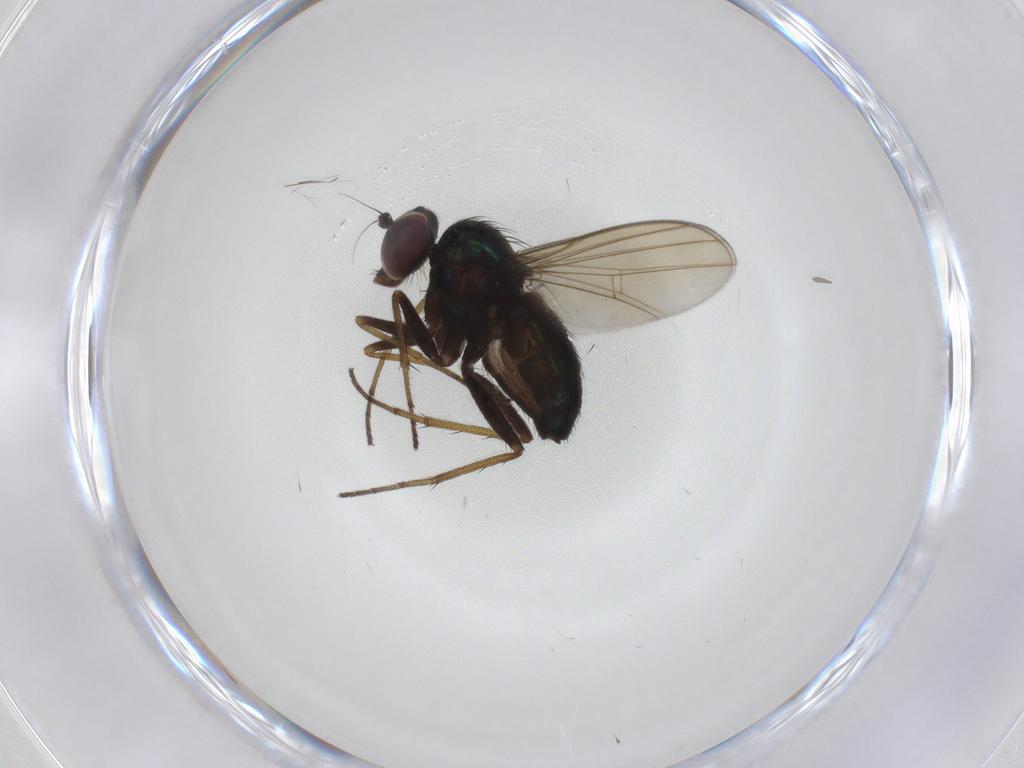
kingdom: Animalia
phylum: Arthropoda
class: Insecta
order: Diptera
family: Dolichopodidae
